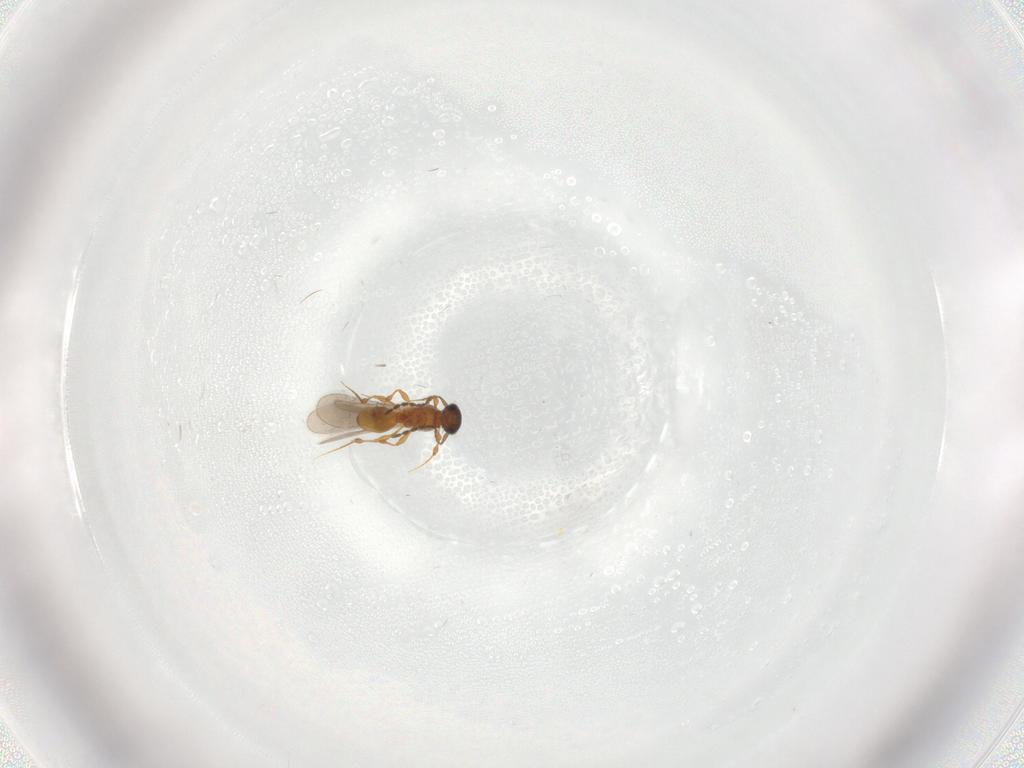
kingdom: Animalia
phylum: Arthropoda
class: Insecta
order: Hymenoptera
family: Platygastridae
